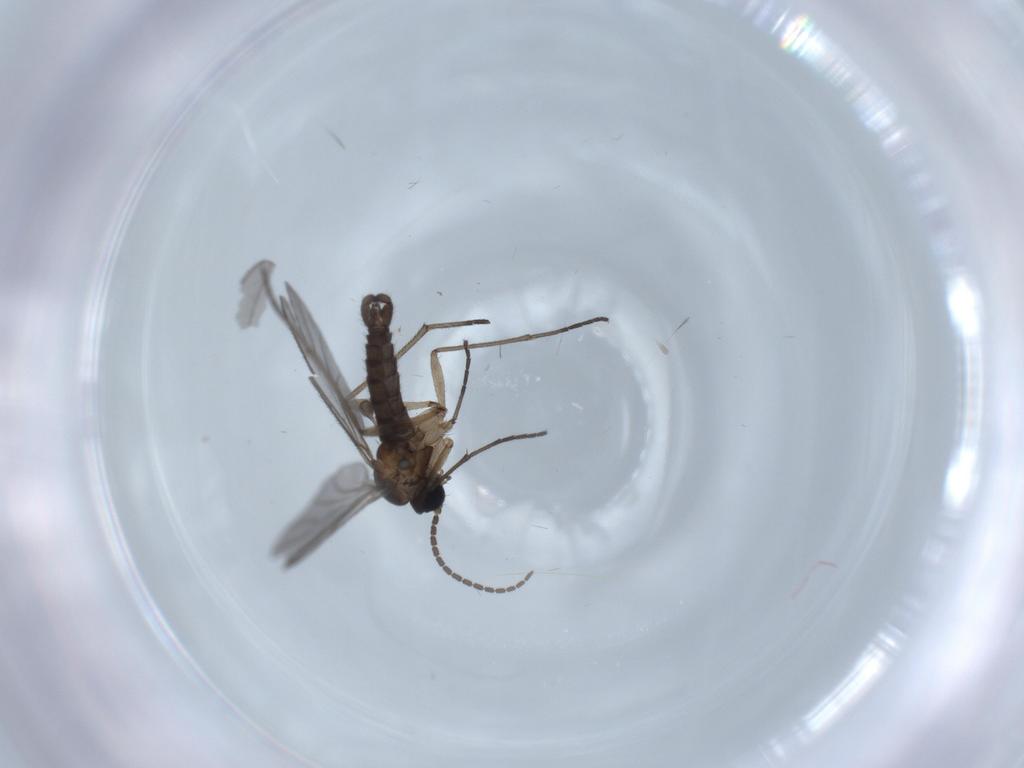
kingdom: Animalia
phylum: Arthropoda
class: Insecta
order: Diptera
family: Sciaridae
